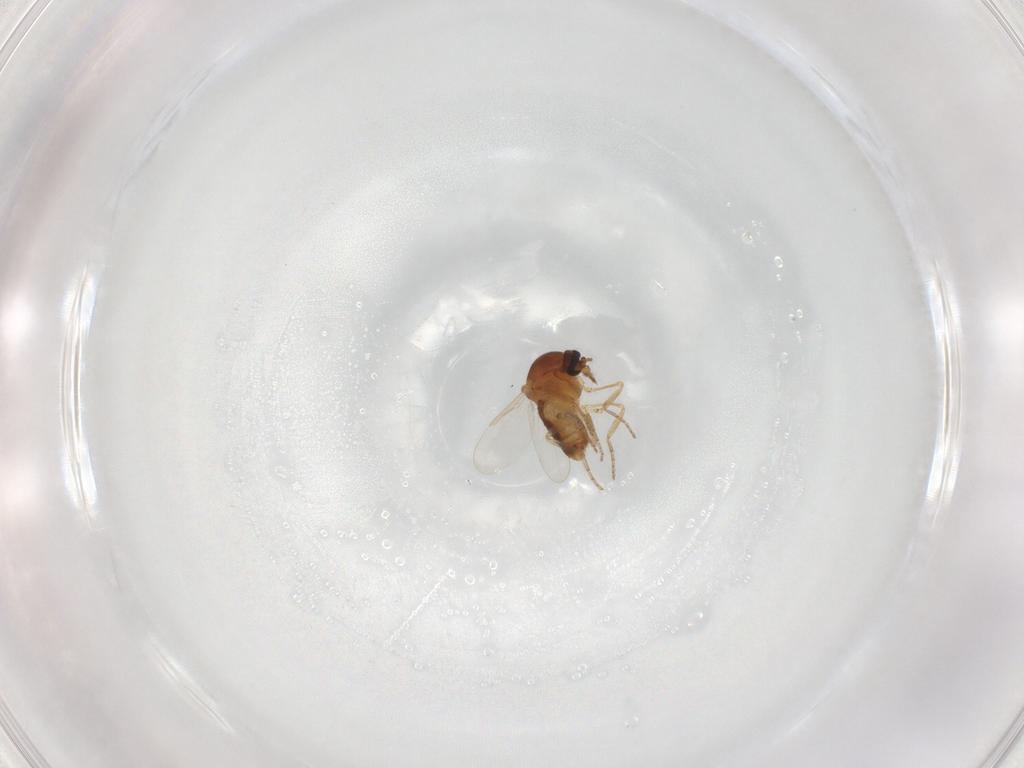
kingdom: Animalia
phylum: Arthropoda
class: Insecta
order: Diptera
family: Ceratopogonidae
